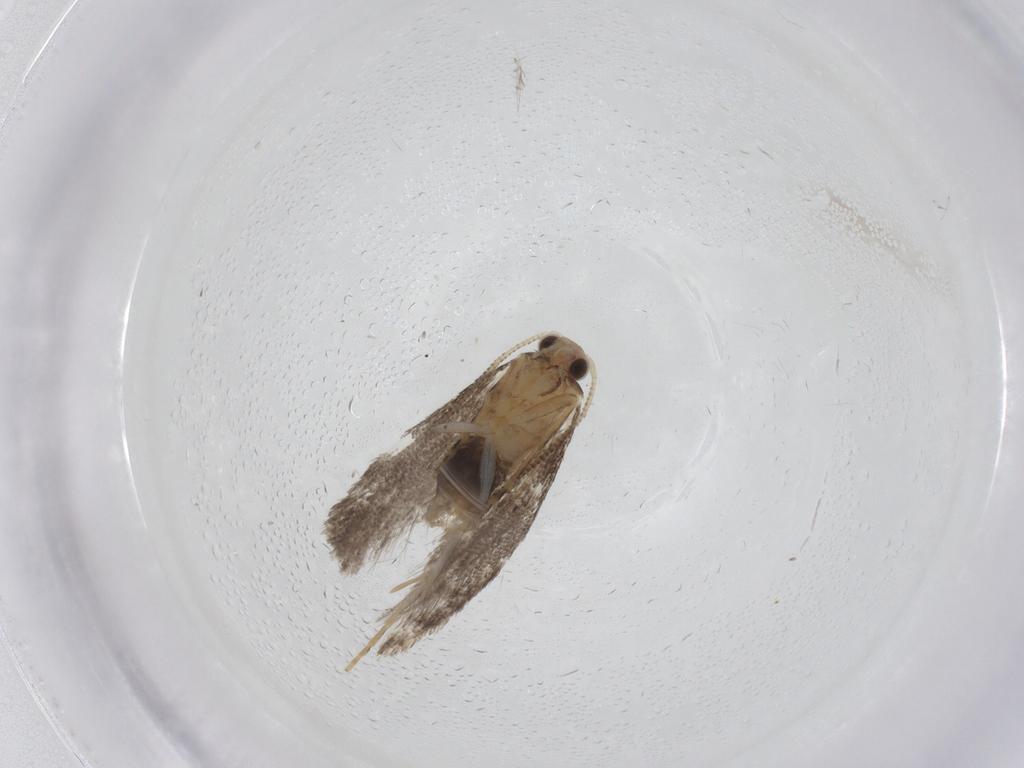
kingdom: Animalia
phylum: Arthropoda
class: Insecta
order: Lepidoptera
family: Tineidae
